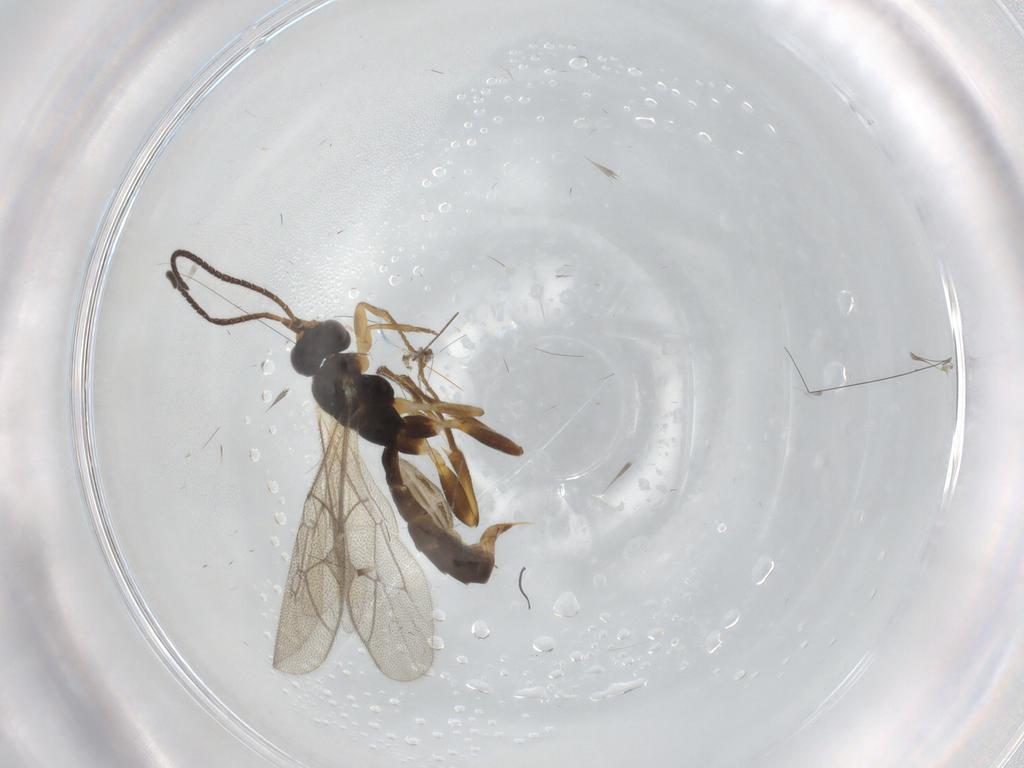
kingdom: Animalia
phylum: Arthropoda
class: Insecta
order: Hymenoptera
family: Ichneumonidae
